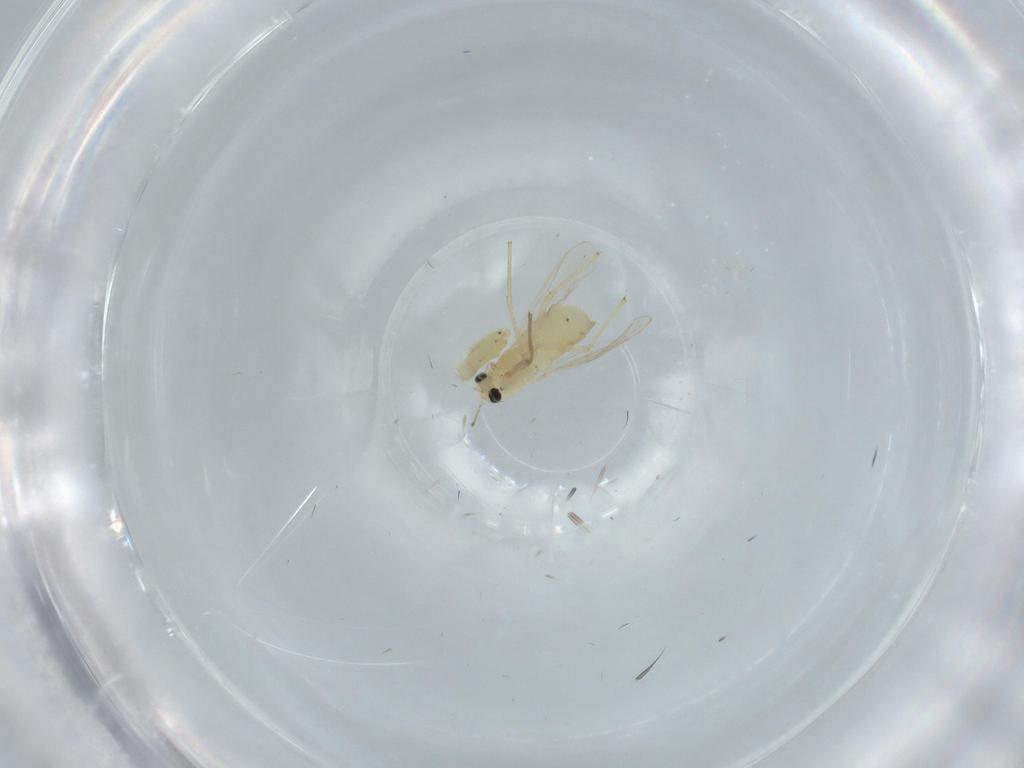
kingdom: Animalia
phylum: Arthropoda
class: Insecta
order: Diptera
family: Chironomidae
